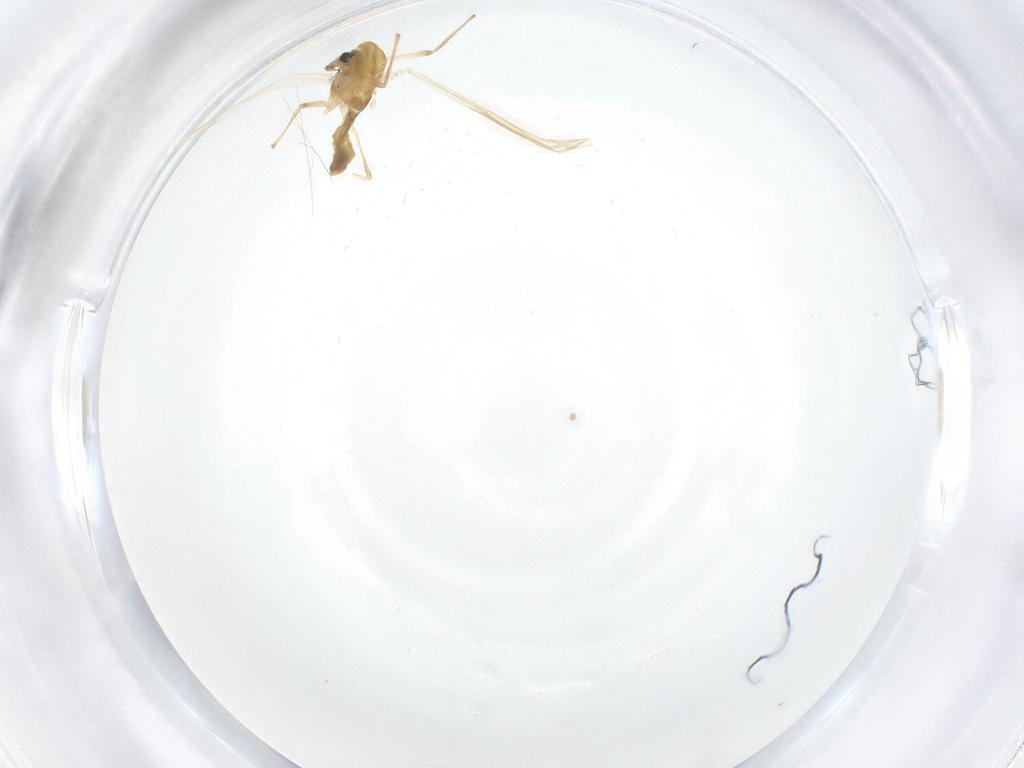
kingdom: Animalia
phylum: Arthropoda
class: Insecta
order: Diptera
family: Chironomidae
